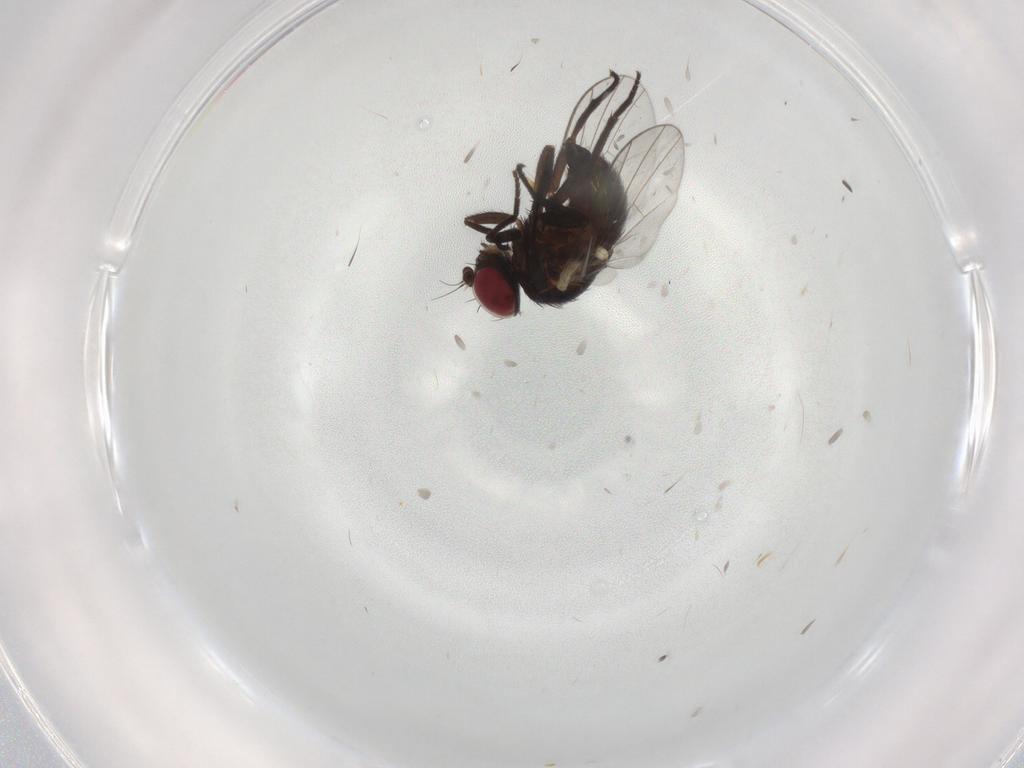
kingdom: Animalia
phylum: Arthropoda
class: Insecta
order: Diptera
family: Agromyzidae
